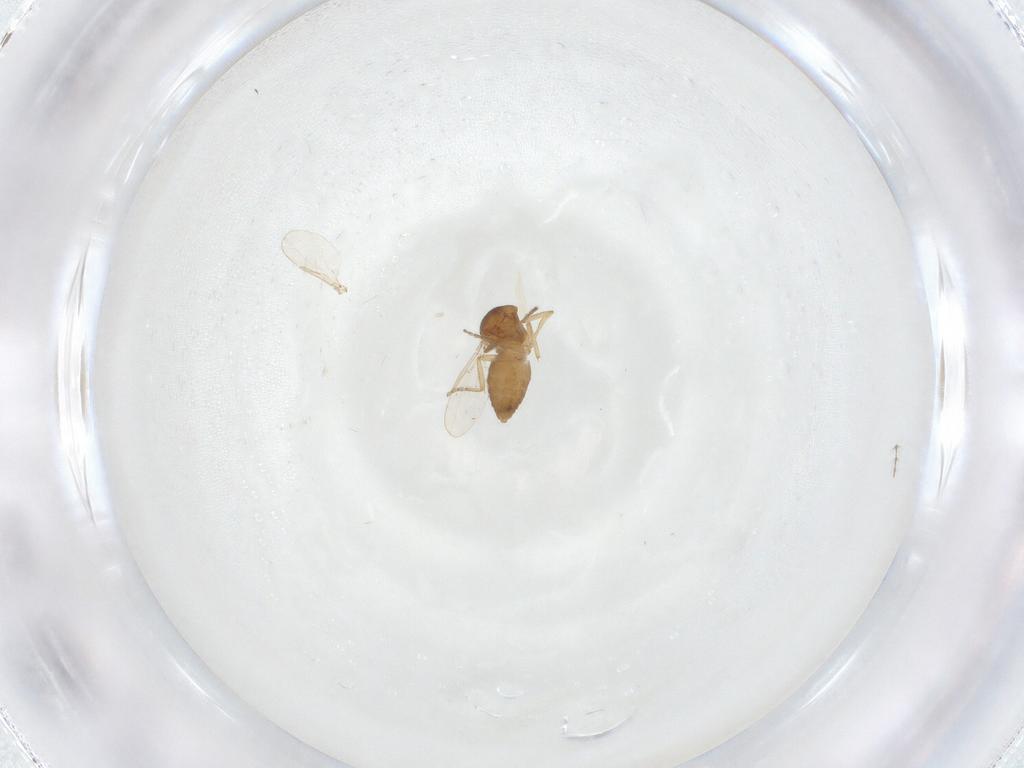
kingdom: Animalia
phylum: Arthropoda
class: Insecta
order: Diptera
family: Ceratopogonidae
